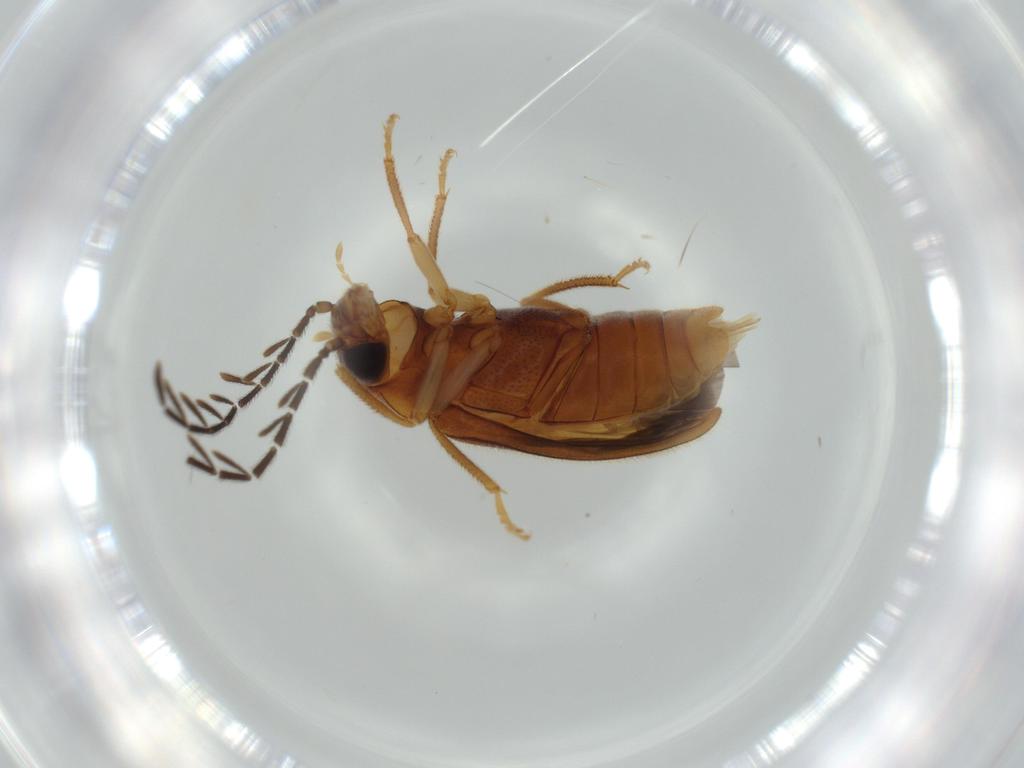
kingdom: Animalia
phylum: Arthropoda
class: Insecta
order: Coleoptera
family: Ptilodactylidae
